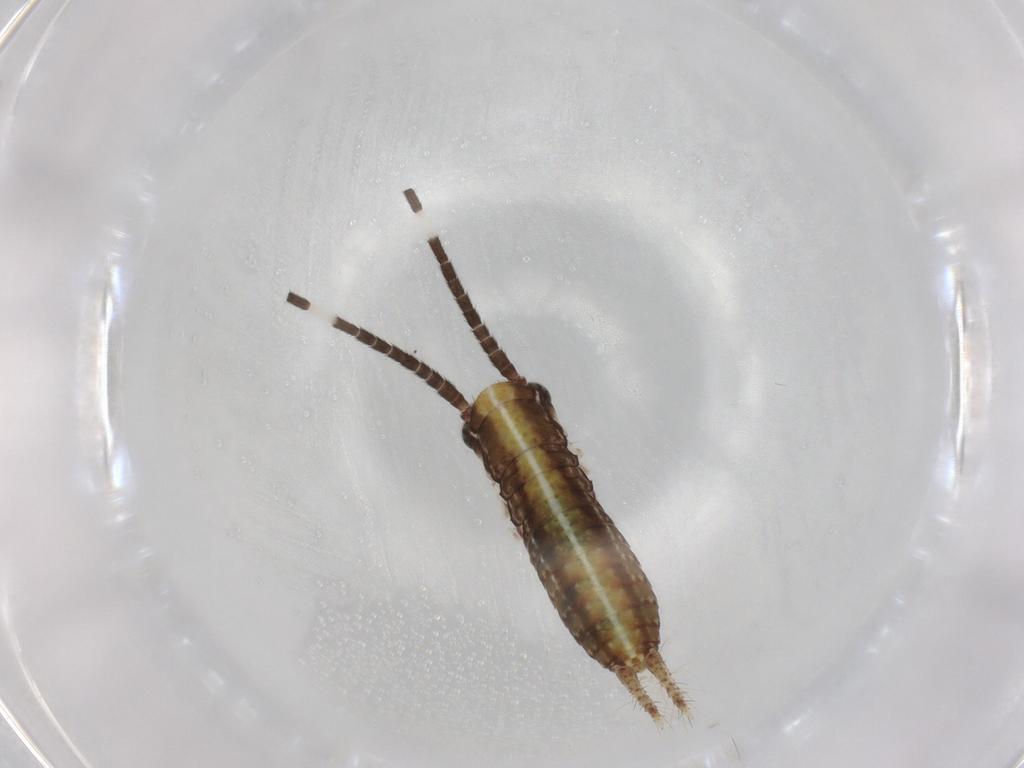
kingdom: Animalia
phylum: Arthropoda
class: Insecta
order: Orthoptera
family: Gryllidae
